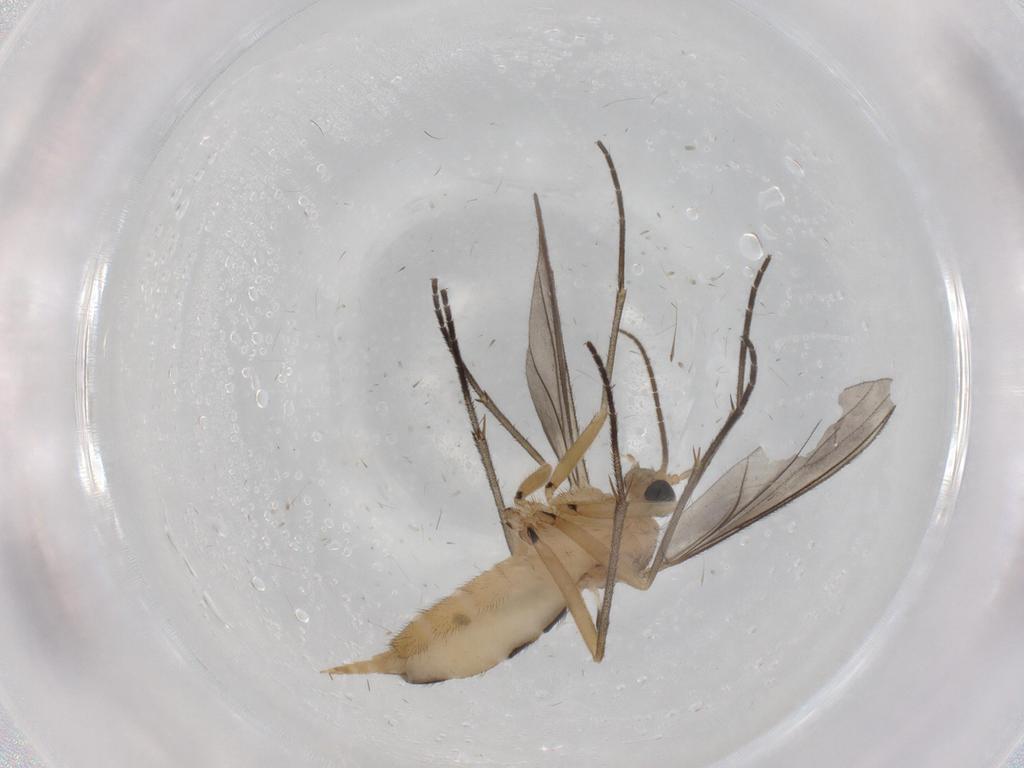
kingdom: Animalia
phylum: Arthropoda
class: Insecta
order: Diptera
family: Sciaridae
